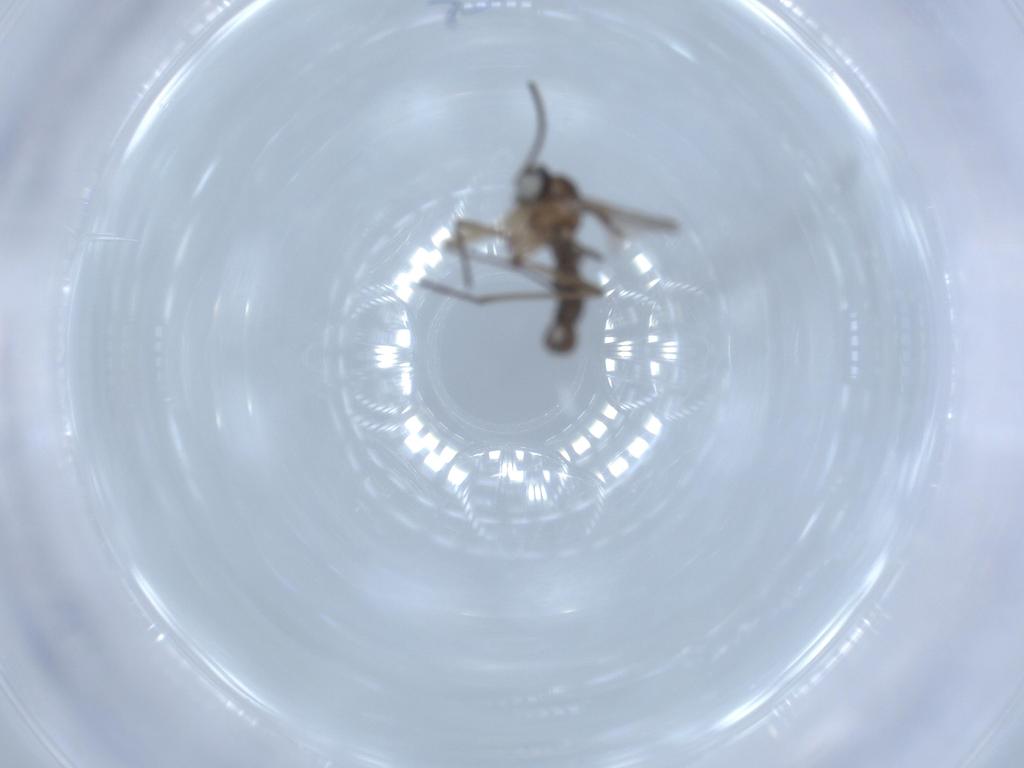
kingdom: Animalia
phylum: Arthropoda
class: Insecta
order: Diptera
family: Sciaridae
